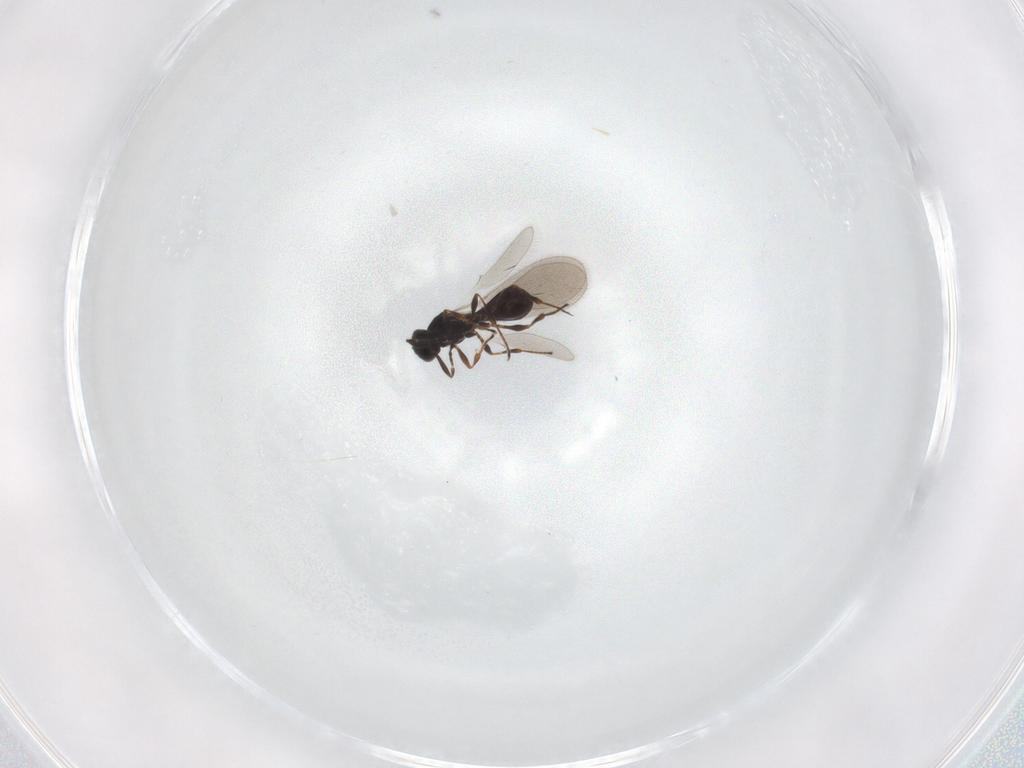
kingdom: Animalia
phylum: Arthropoda
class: Insecta
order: Hymenoptera
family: Platygastridae
